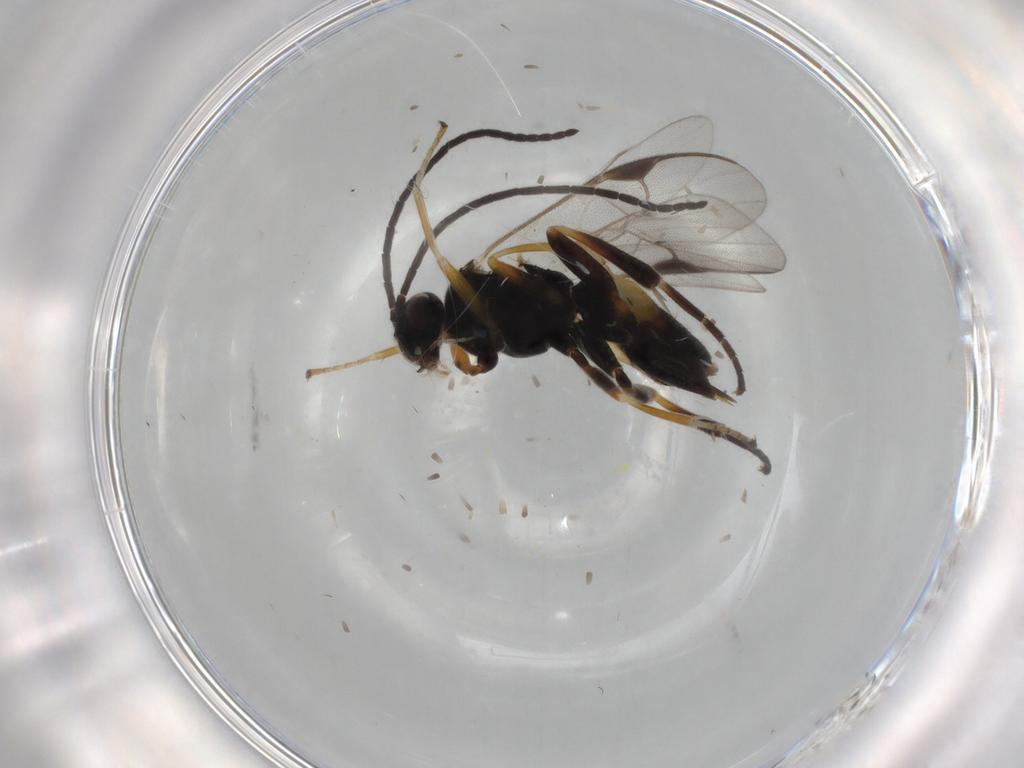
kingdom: Animalia
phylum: Arthropoda
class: Insecta
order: Hymenoptera
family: Braconidae
